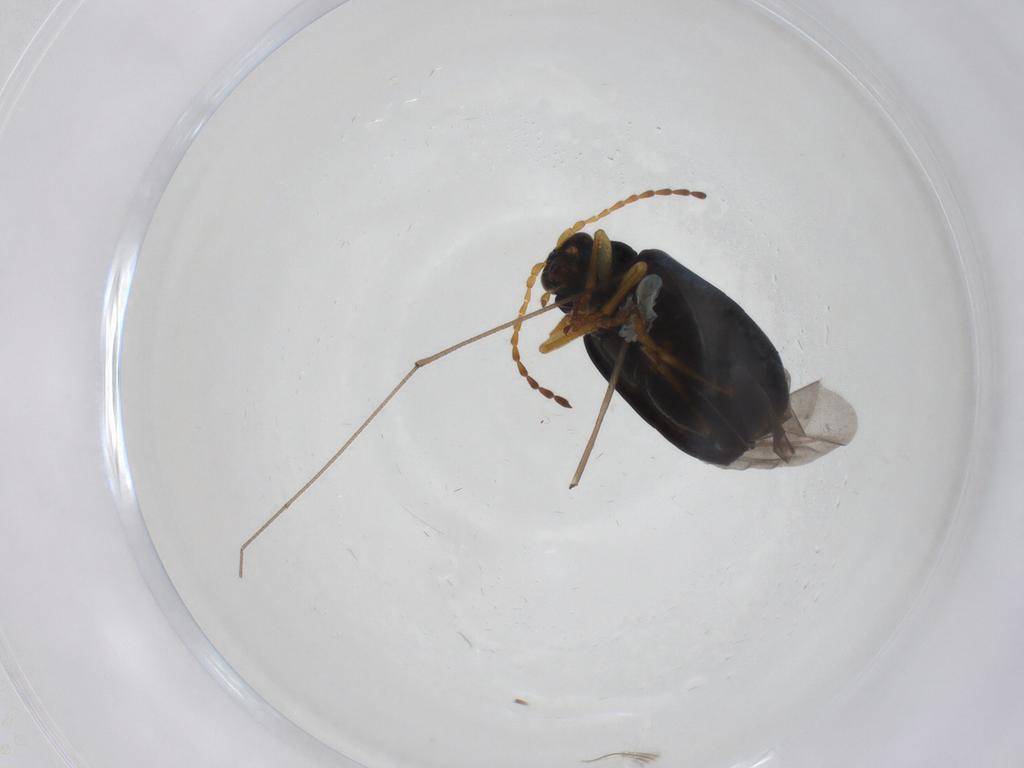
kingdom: Animalia
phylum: Arthropoda
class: Insecta
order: Coleoptera
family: Chrysomelidae
